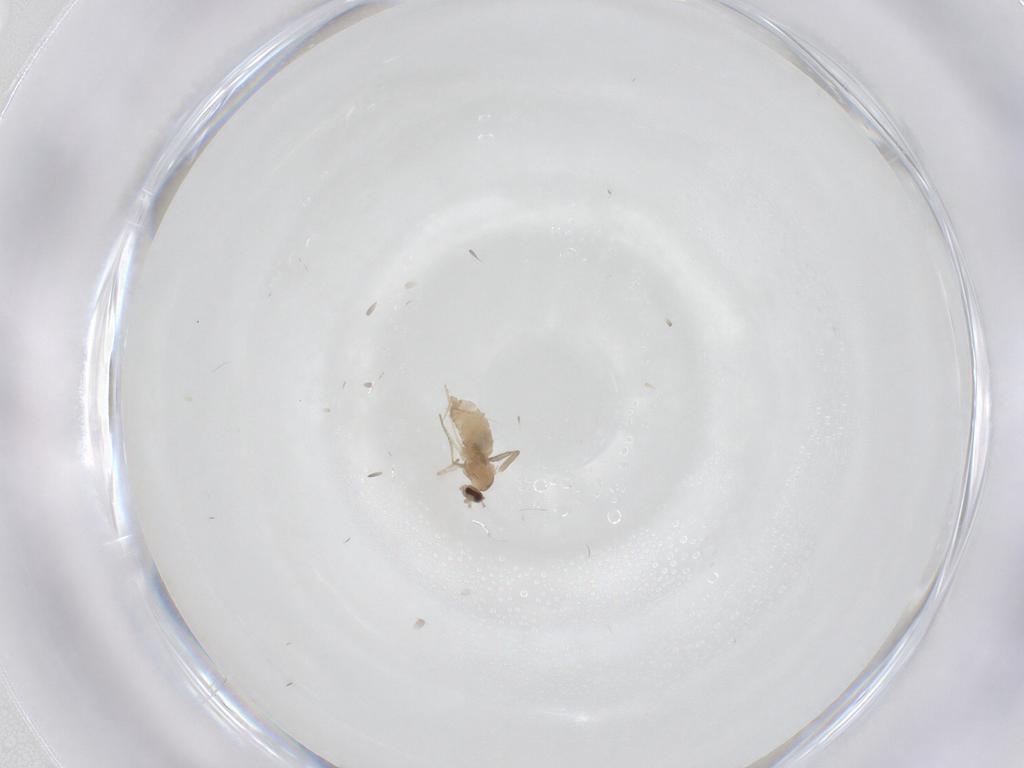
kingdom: Animalia
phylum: Arthropoda
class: Insecta
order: Diptera
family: Cecidomyiidae
